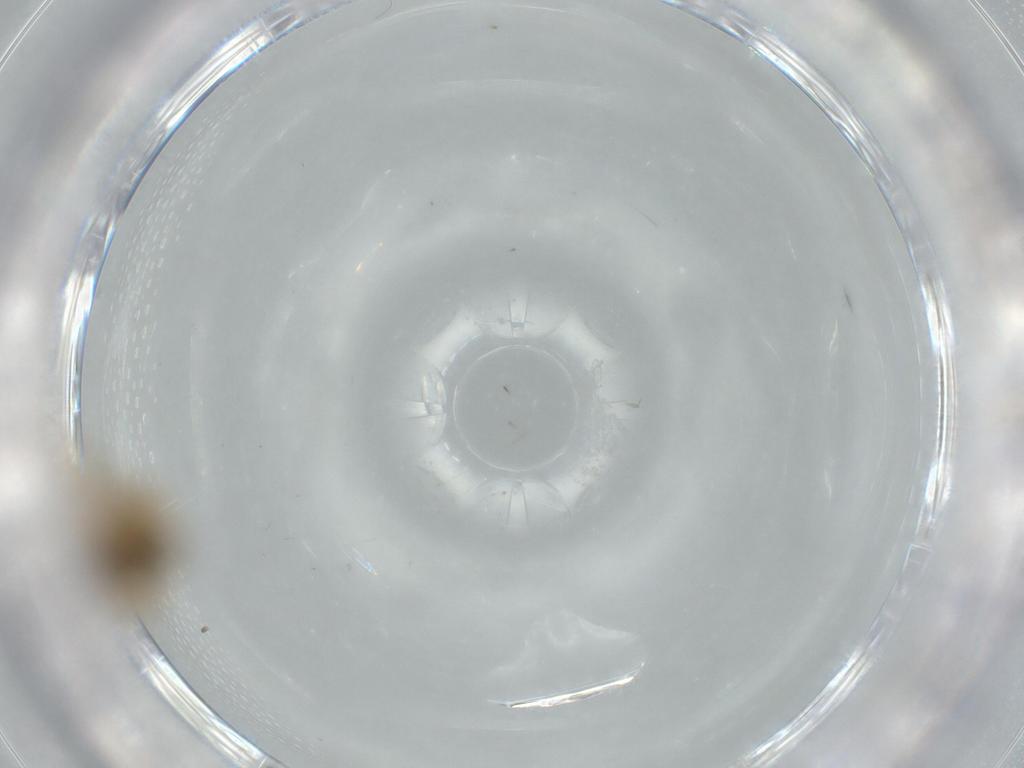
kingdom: Animalia
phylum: Arthropoda
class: Insecta
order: Psocodea
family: Caeciliusidae
